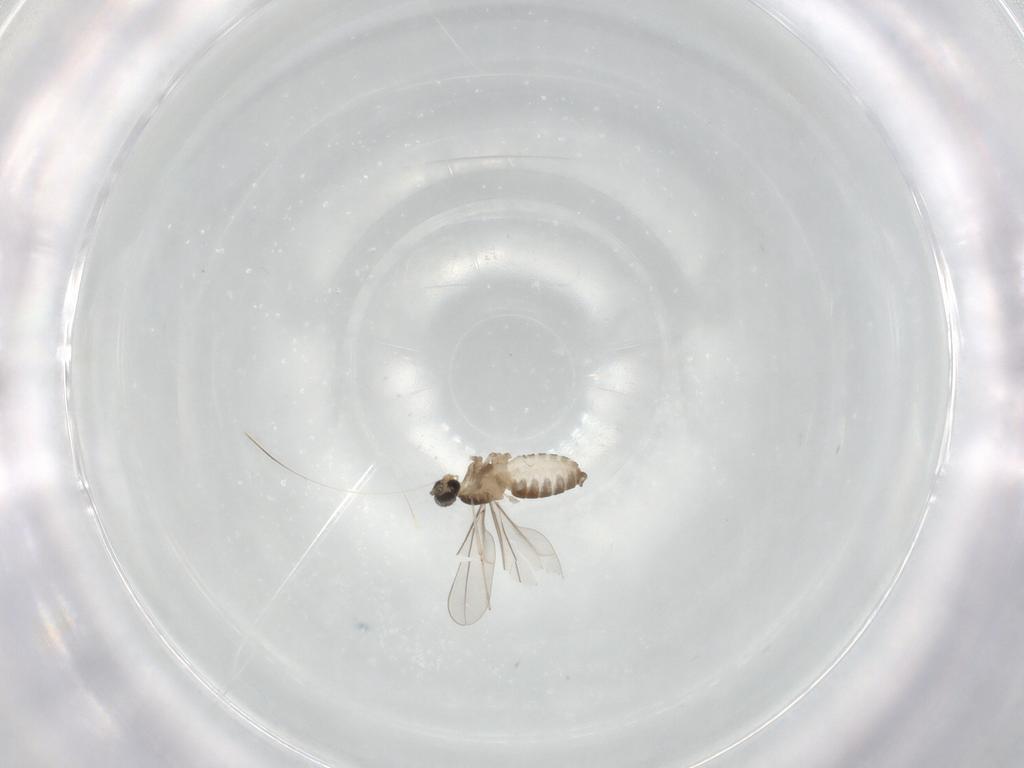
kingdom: Animalia
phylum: Arthropoda
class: Insecta
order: Diptera
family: Cecidomyiidae
